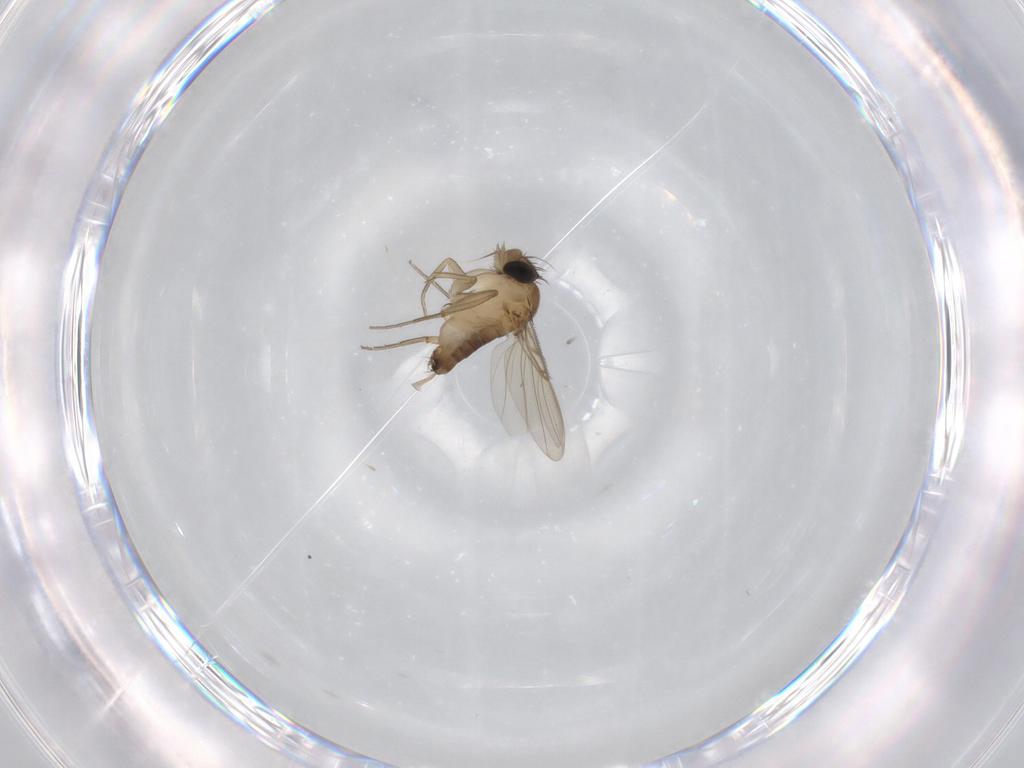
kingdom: Animalia
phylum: Arthropoda
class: Insecta
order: Diptera
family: Phoridae
